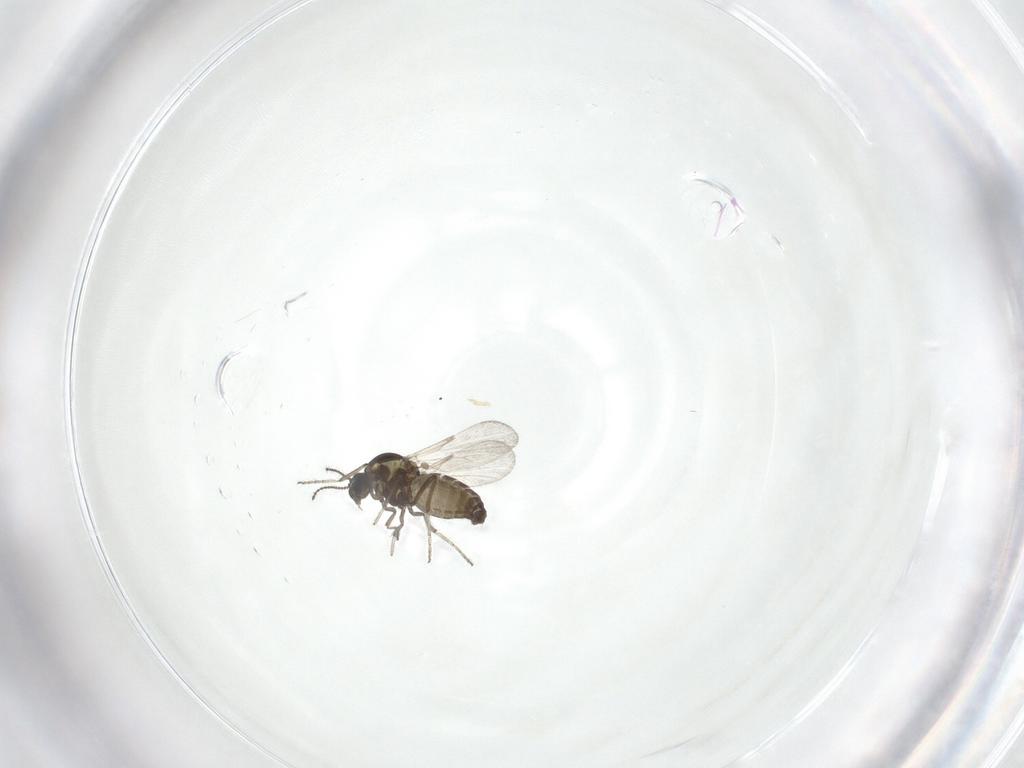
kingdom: Animalia
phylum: Arthropoda
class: Insecta
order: Diptera
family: Ceratopogonidae
